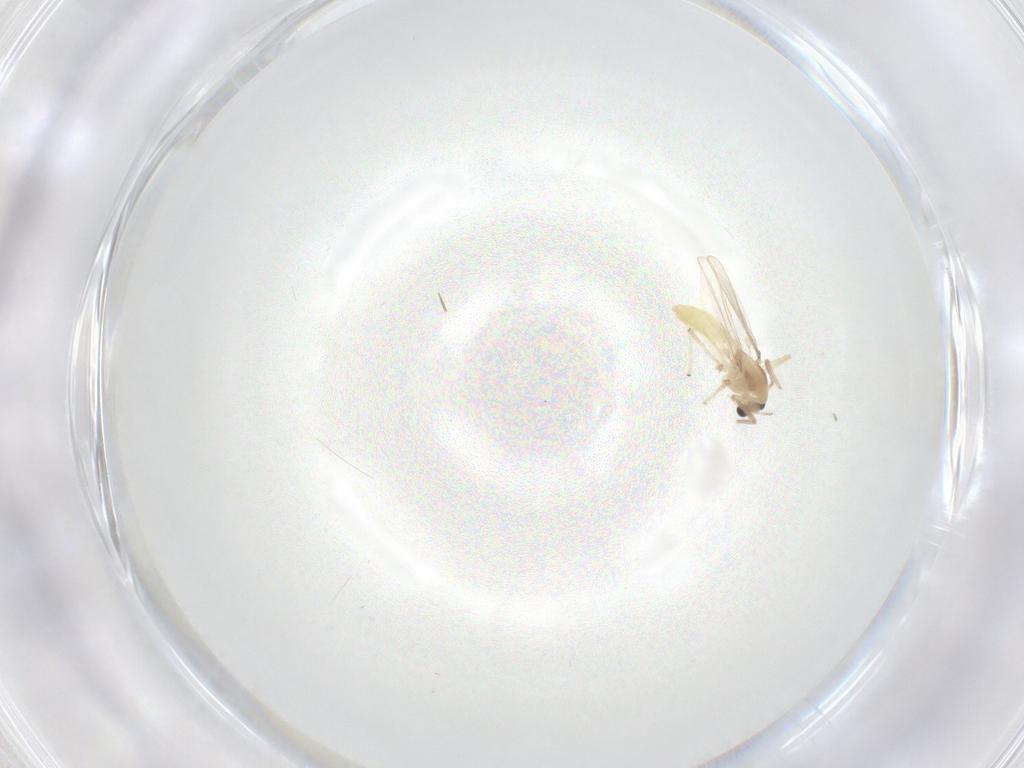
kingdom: Animalia
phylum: Arthropoda
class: Insecta
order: Diptera
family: Chironomidae
